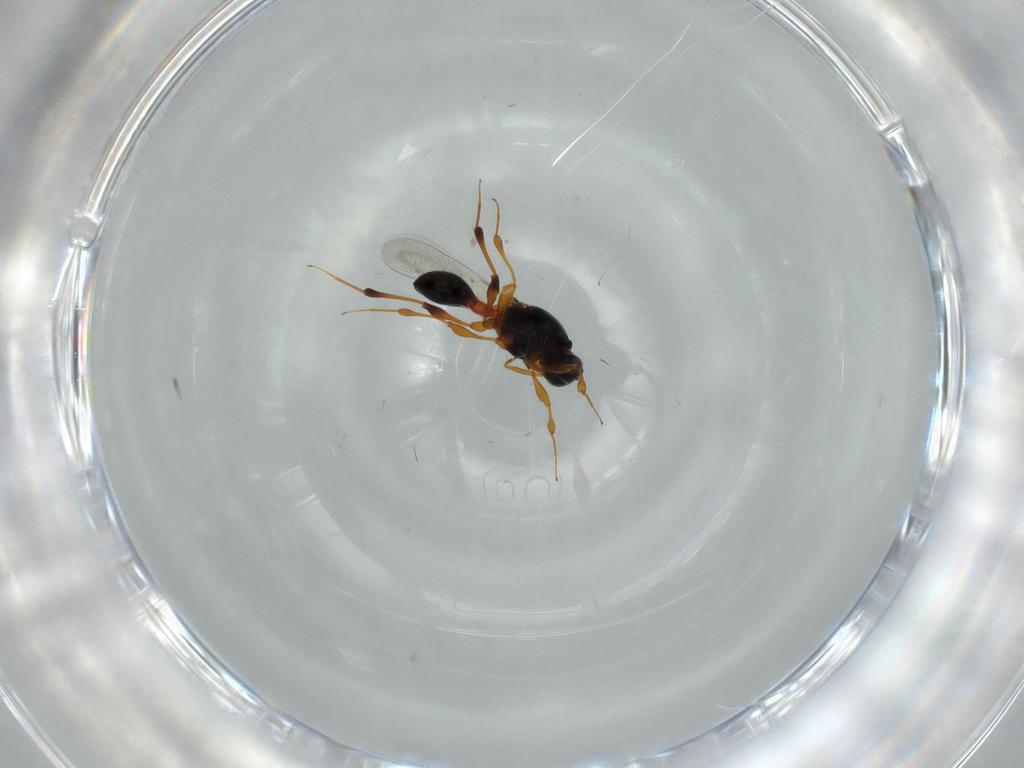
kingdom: Animalia
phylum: Arthropoda
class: Insecta
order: Hymenoptera
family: Platygastridae
